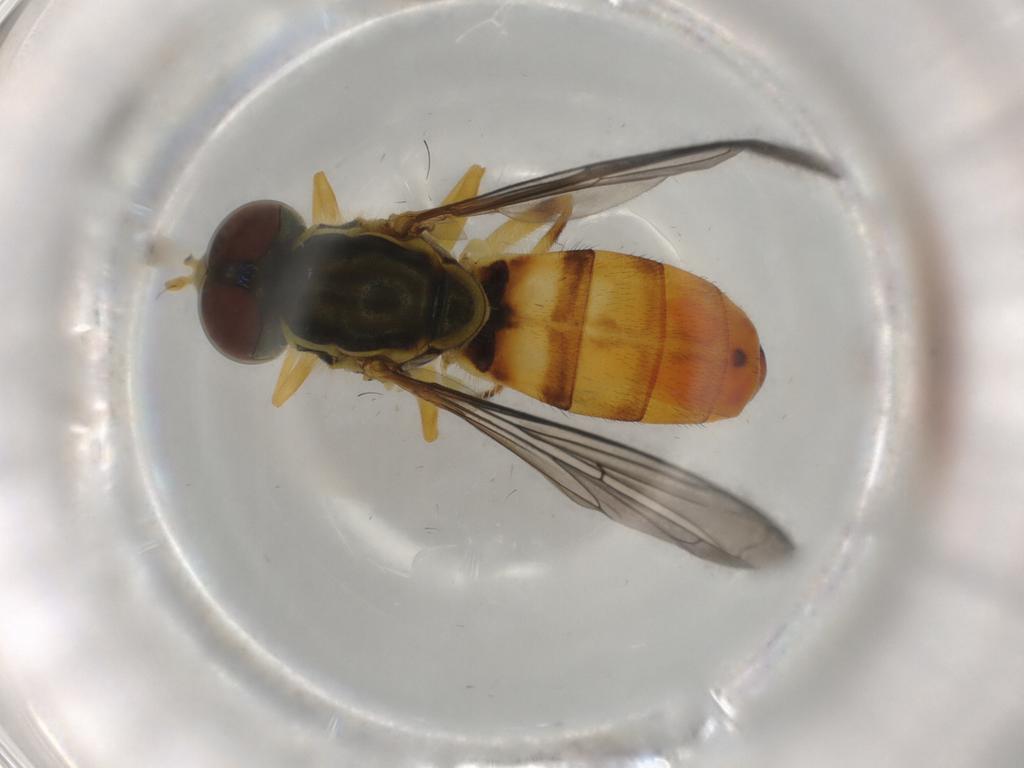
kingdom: Animalia
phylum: Arthropoda
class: Insecta
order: Diptera
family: Syrphidae
